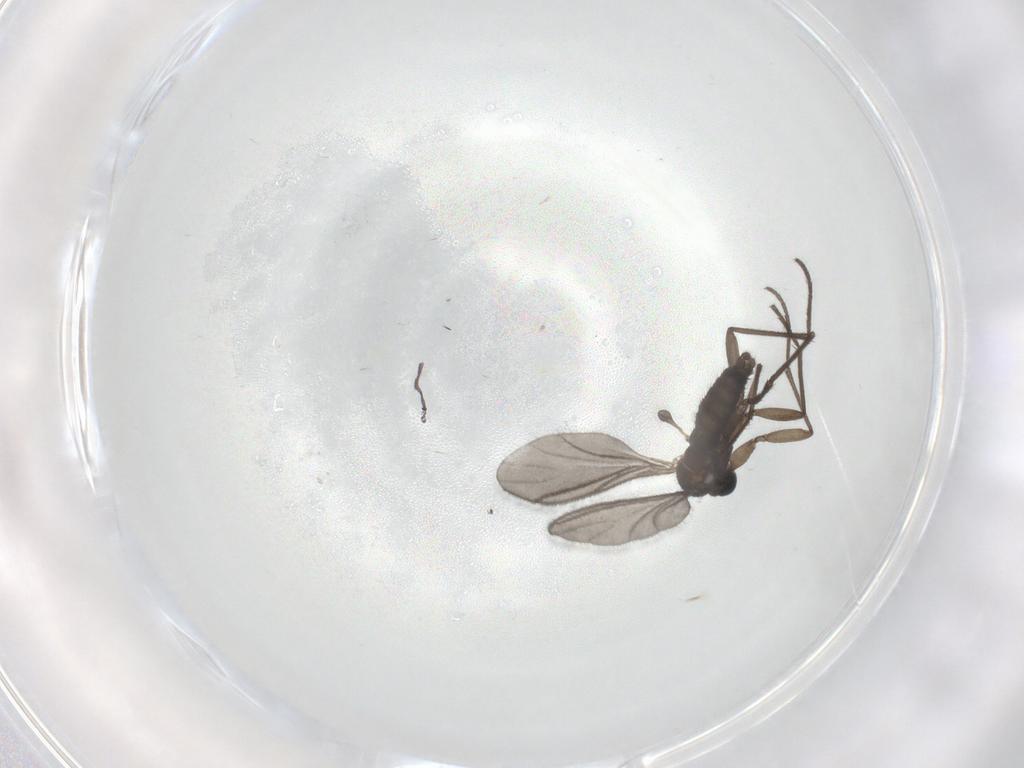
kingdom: Animalia
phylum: Arthropoda
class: Insecta
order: Diptera
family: Sciaridae
